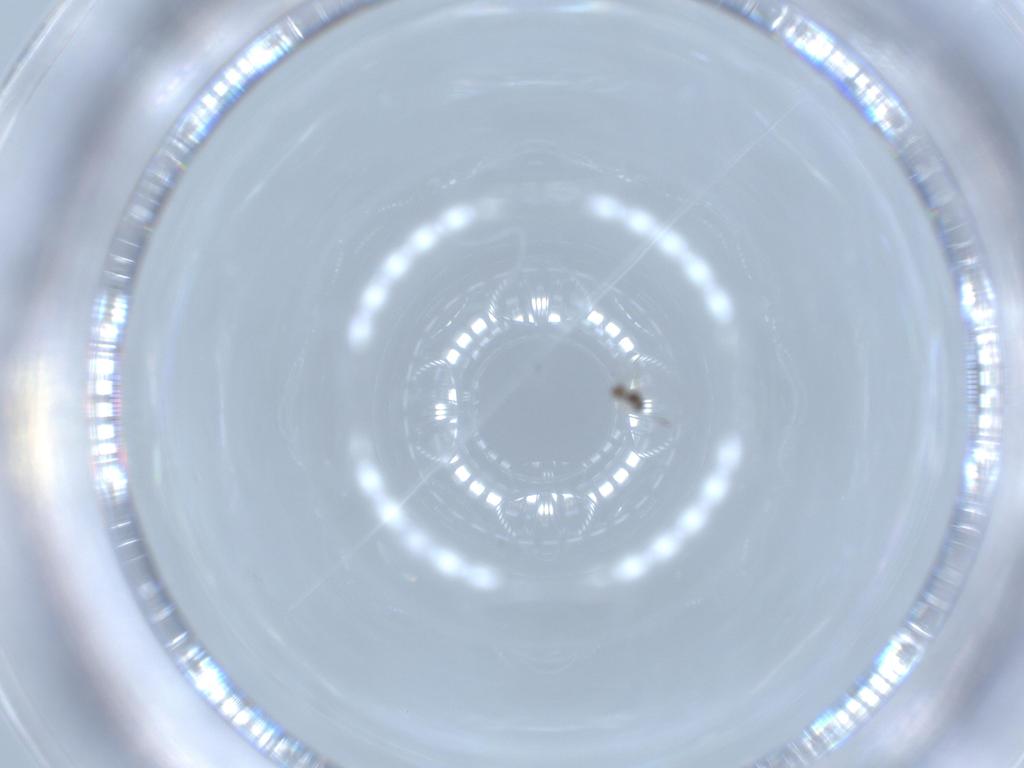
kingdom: Animalia
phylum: Arthropoda
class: Insecta
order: Hymenoptera
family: Mymaridae
